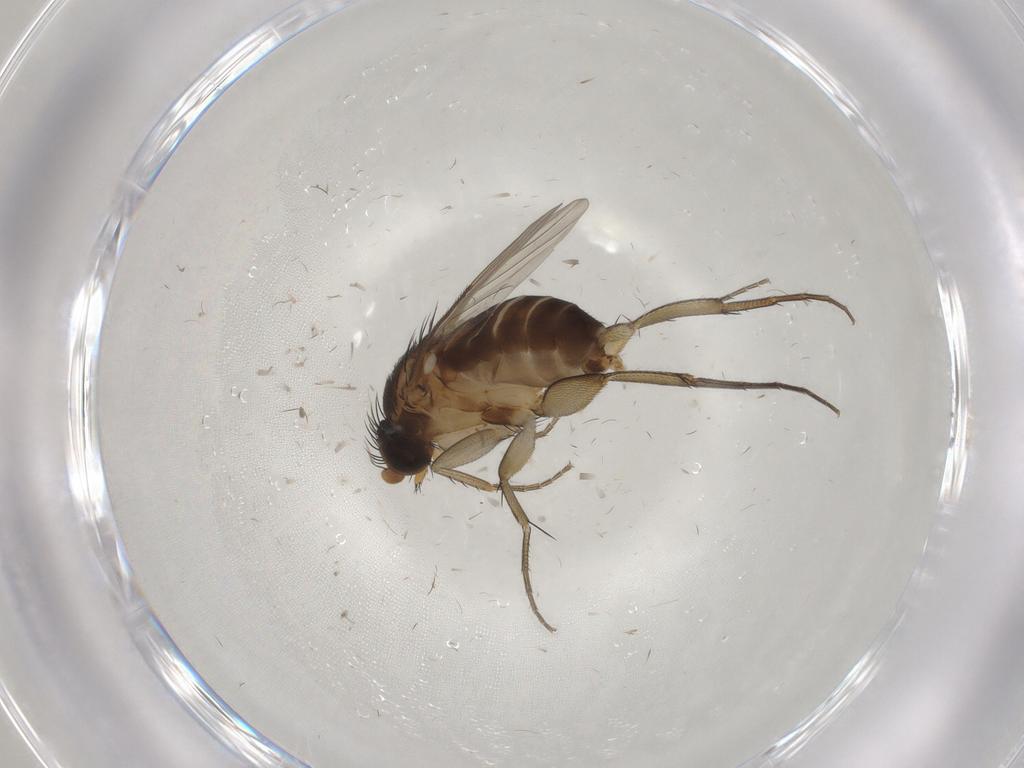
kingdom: Animalia
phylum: Arthropoda
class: Insecta
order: Diptera
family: Phoridae
